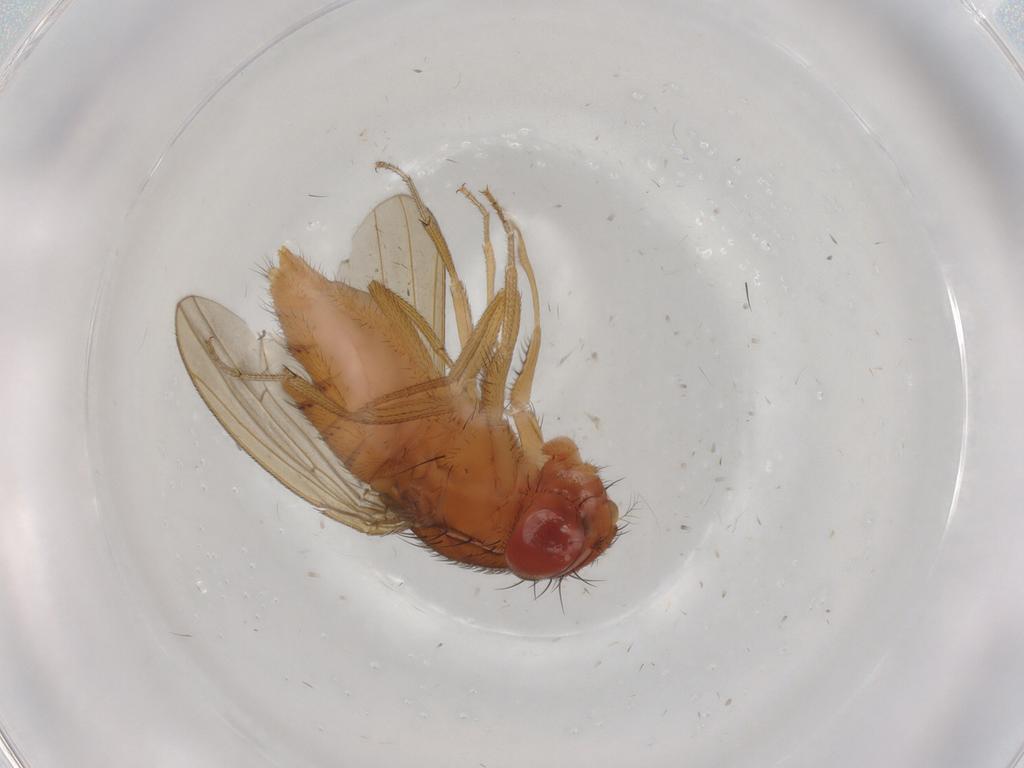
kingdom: Animalia
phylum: Arthropoda
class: Insecta
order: Diptera
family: Drosophilidae
